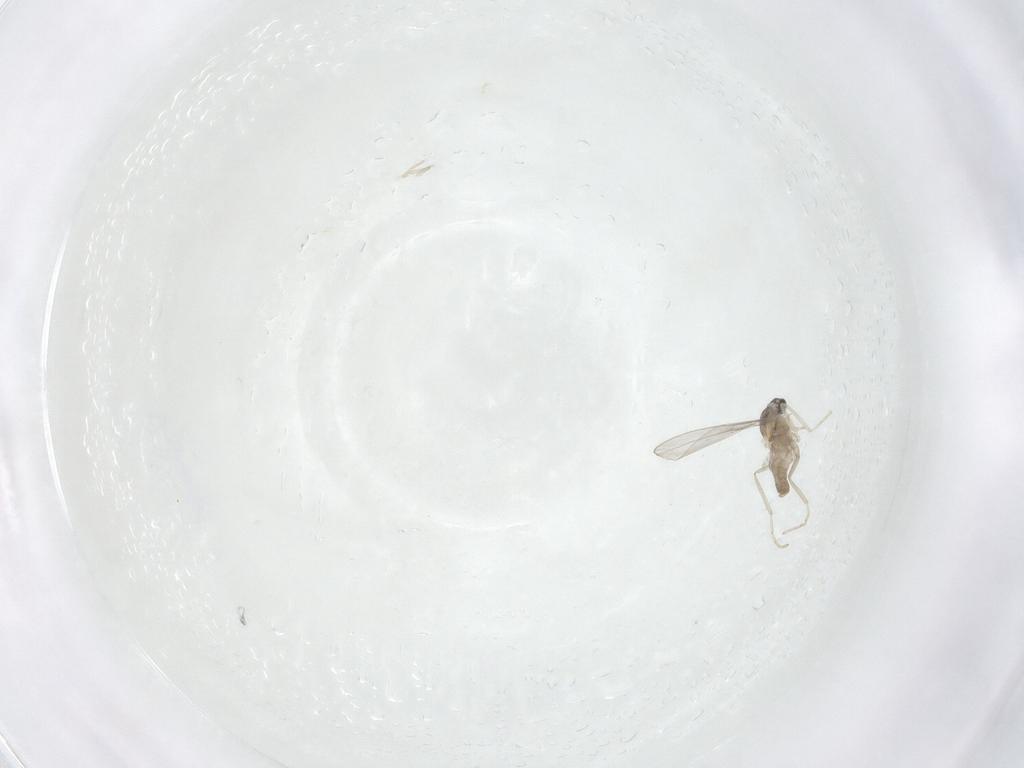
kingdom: Animalia
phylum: Arthropoda
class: Insecta
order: Diptera
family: Cecidomyiidae
